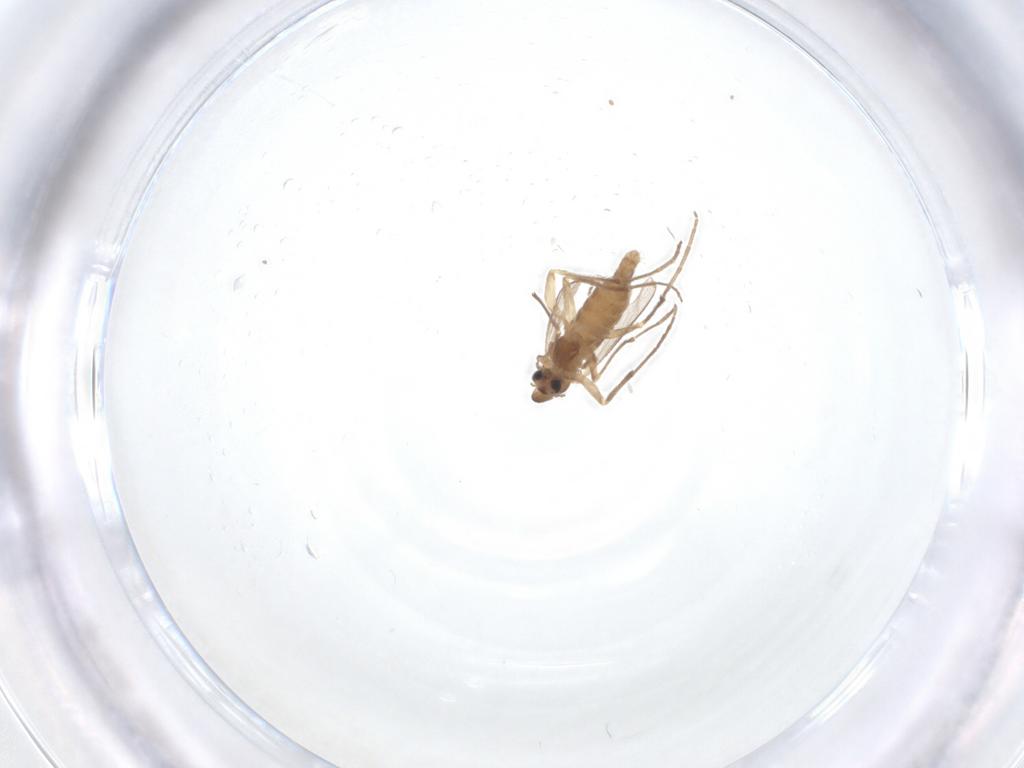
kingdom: Animalia
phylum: Arthropoda
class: Insecta
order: Diptera
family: Chironomidae
